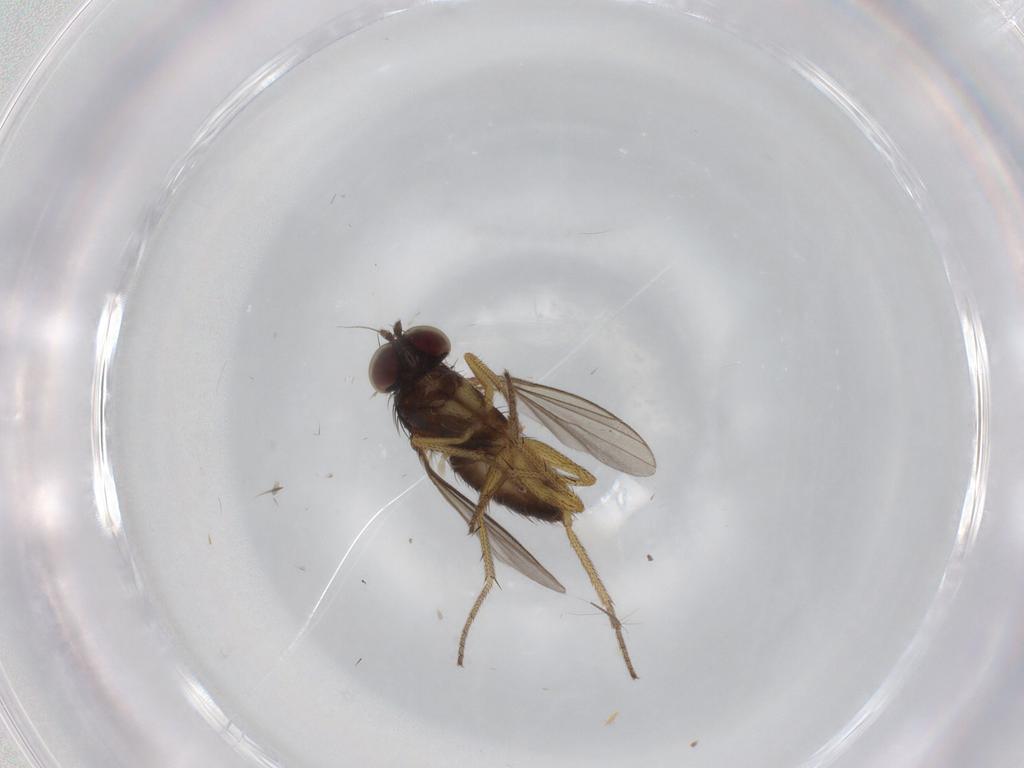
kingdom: Animalia
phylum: Arthropoda
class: Insecta
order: Diptera
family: Dolichopodidae
